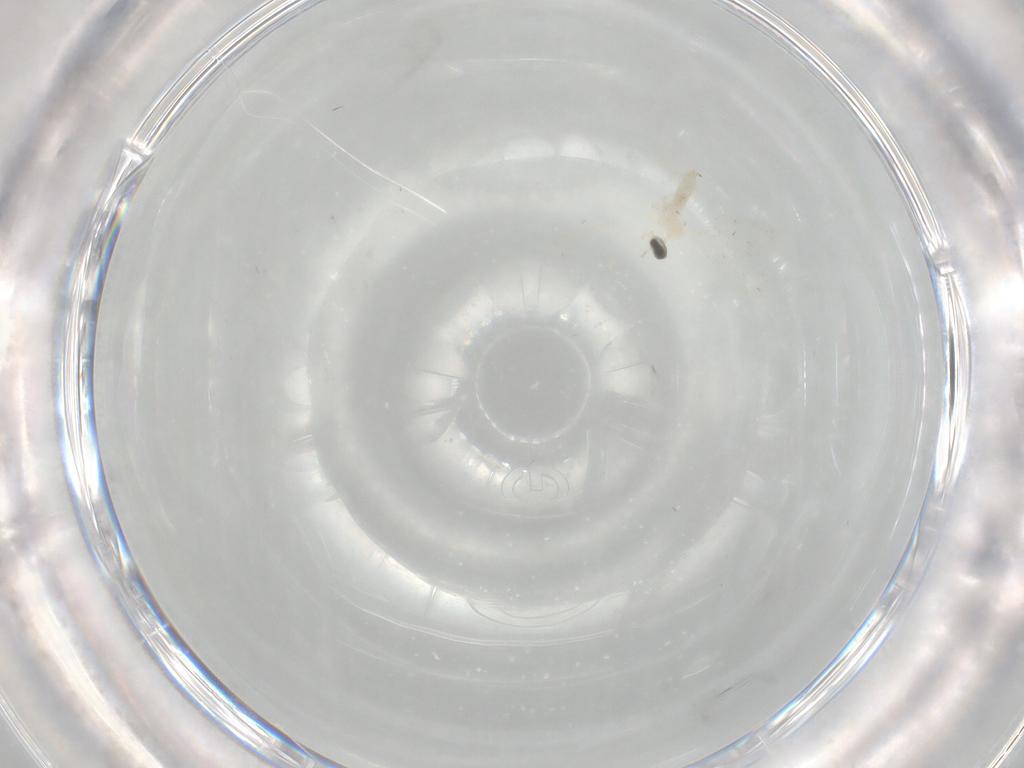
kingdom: Animalia
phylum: Arthropoda
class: Insecta
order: Diptera
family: Cecidomyiidae
